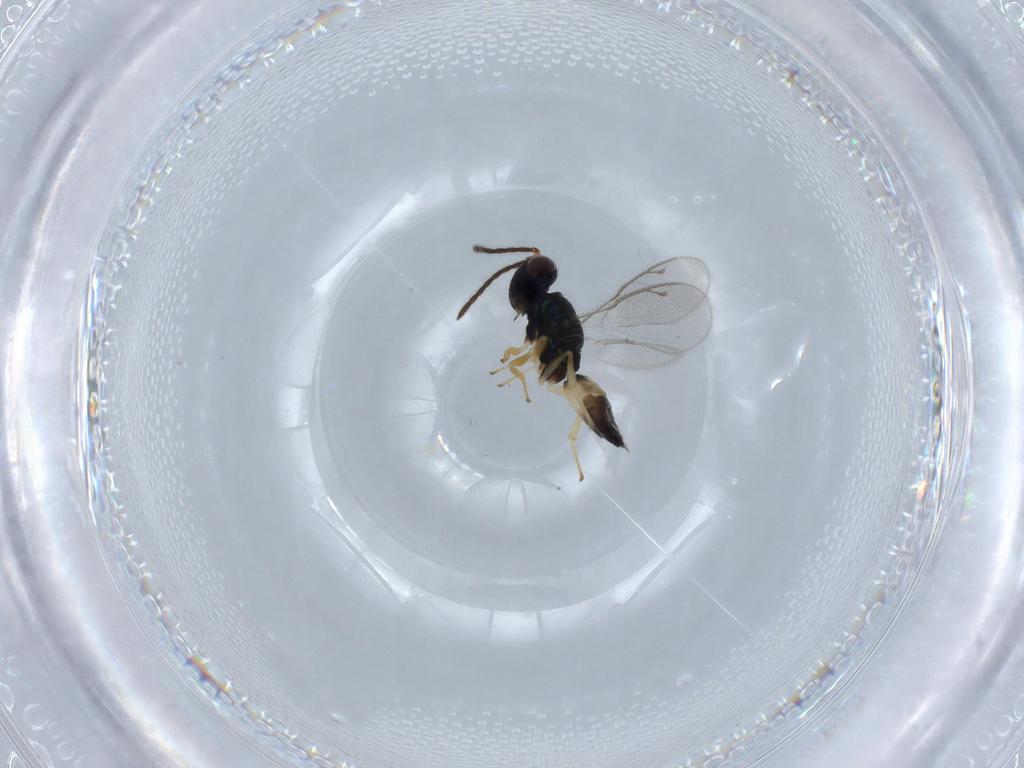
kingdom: Animalia
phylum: Arthropoda
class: Insecta
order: Hymenoptera
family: Pteromalidae
